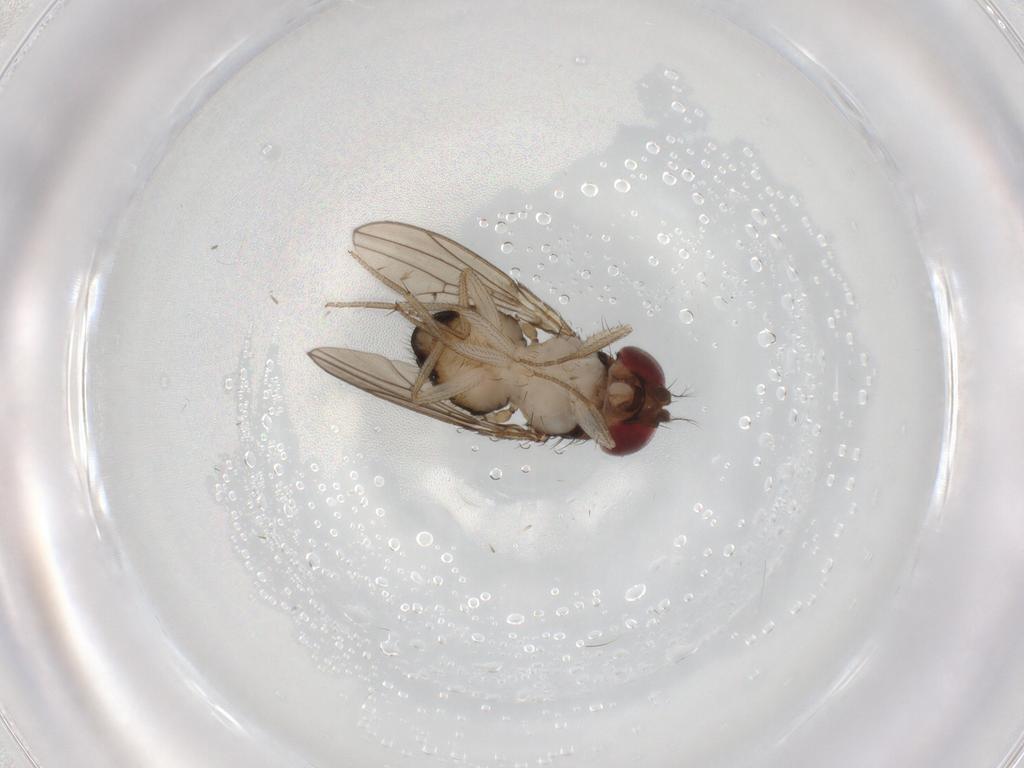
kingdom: Animalia
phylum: Arthropoda
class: Insecta
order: Diptera
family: Drosophilidae
